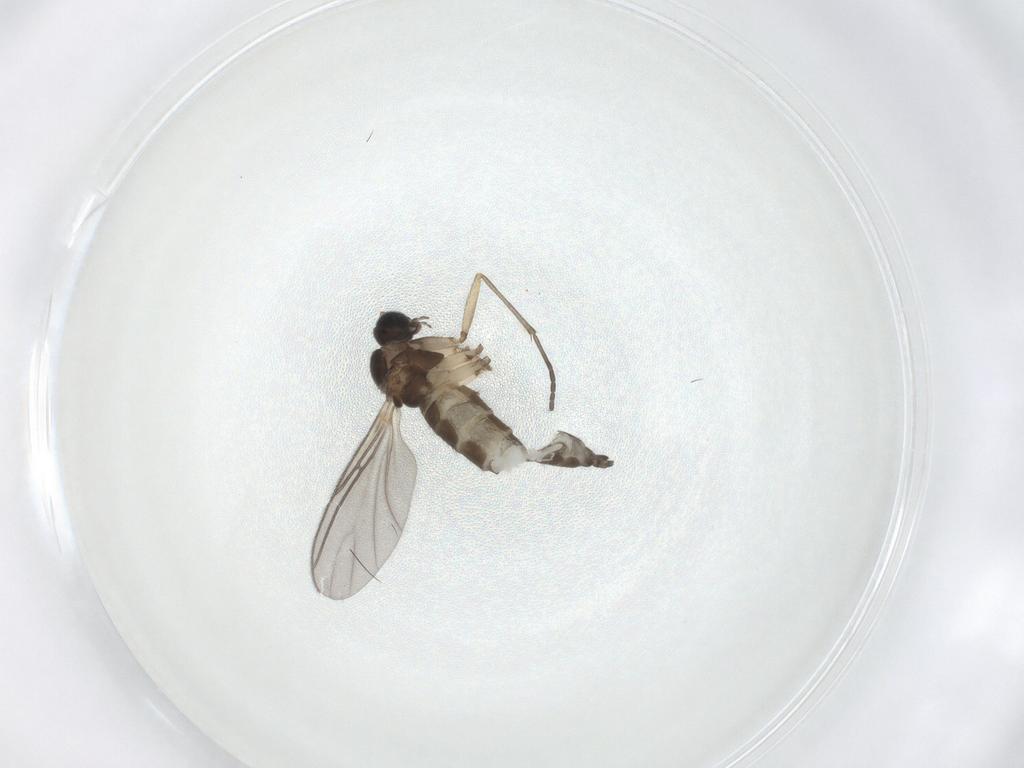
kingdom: Animalia
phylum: Arthropoda
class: Insecta
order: Diptera
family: Sciaridae
